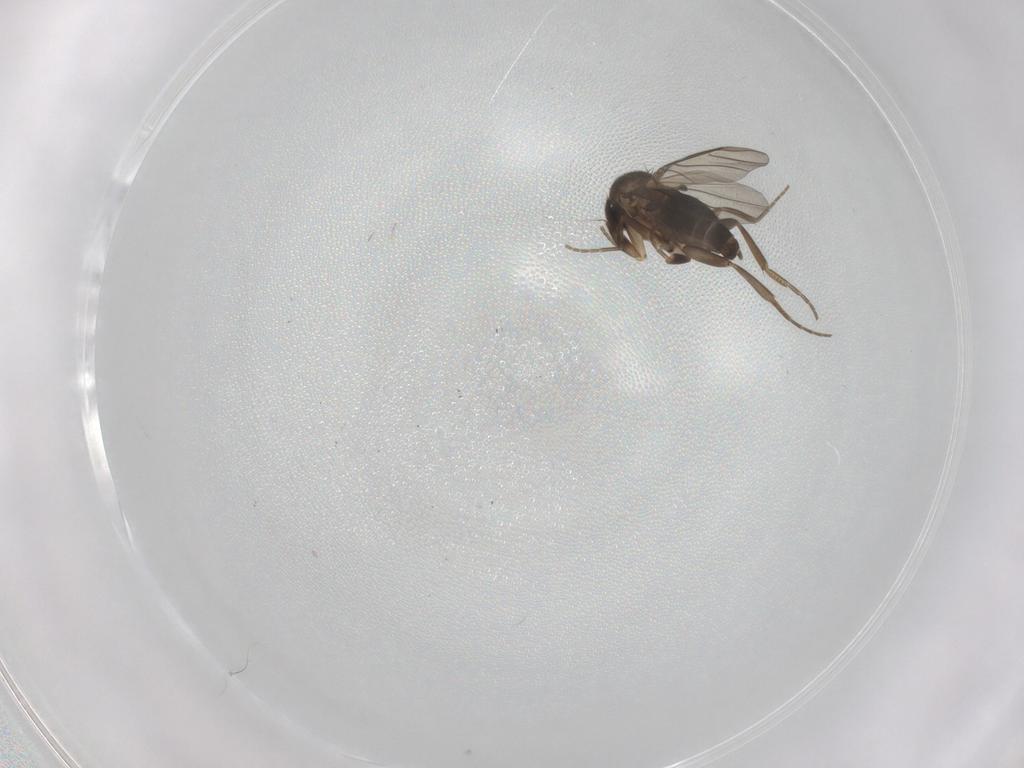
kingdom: Animalia
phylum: Arthropoda
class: Insecta
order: Diptera
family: Phoridae
